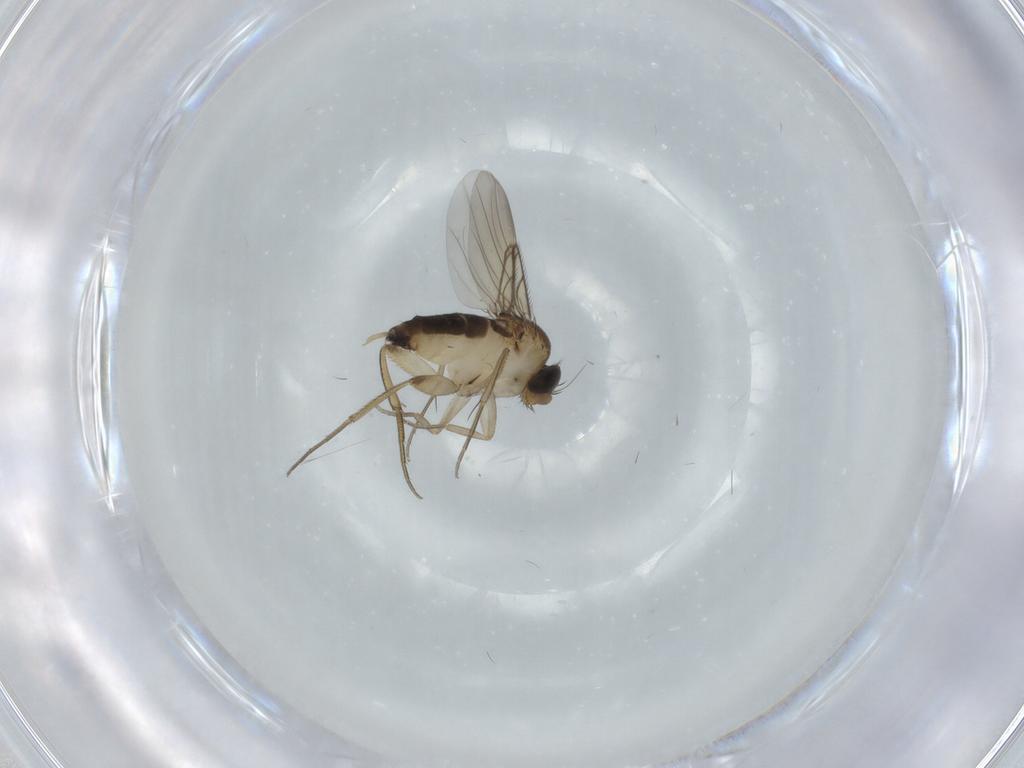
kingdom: Animalia
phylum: Arthropoda
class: Insecta
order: Diptera
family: Phoridae
